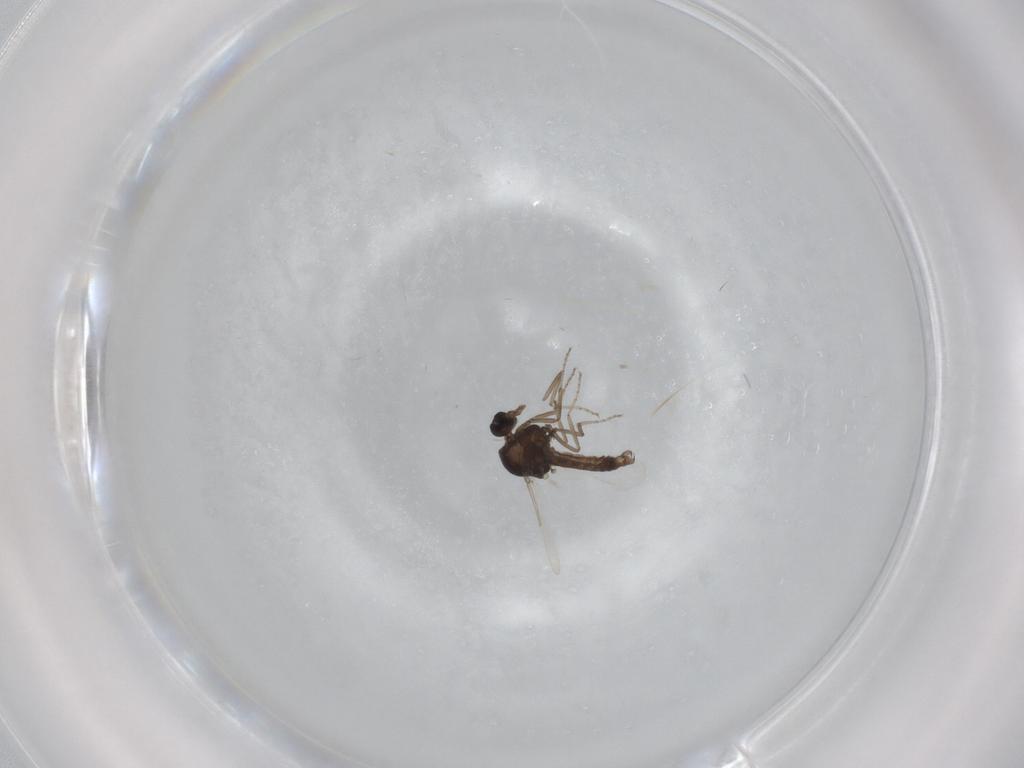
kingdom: Animalia
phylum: Arthropoda
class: Insecta
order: Diptera
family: Ceratopogonidae
